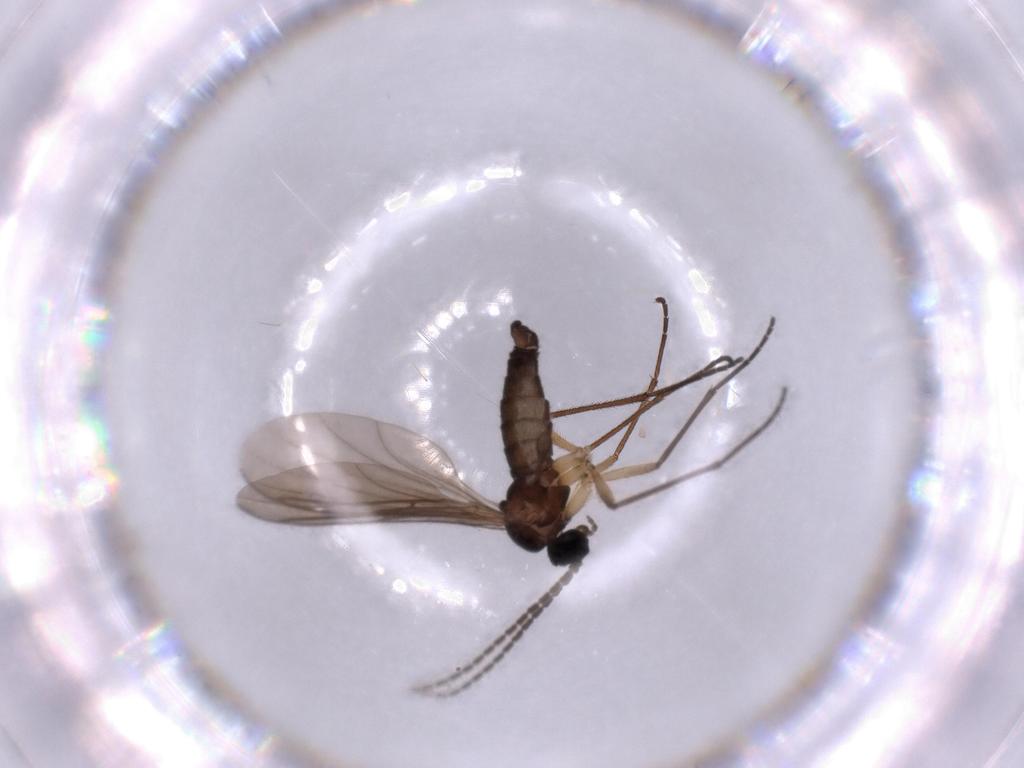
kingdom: Animalia
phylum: Arthropoda
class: Insecta
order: Diptera
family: Sciaridae
